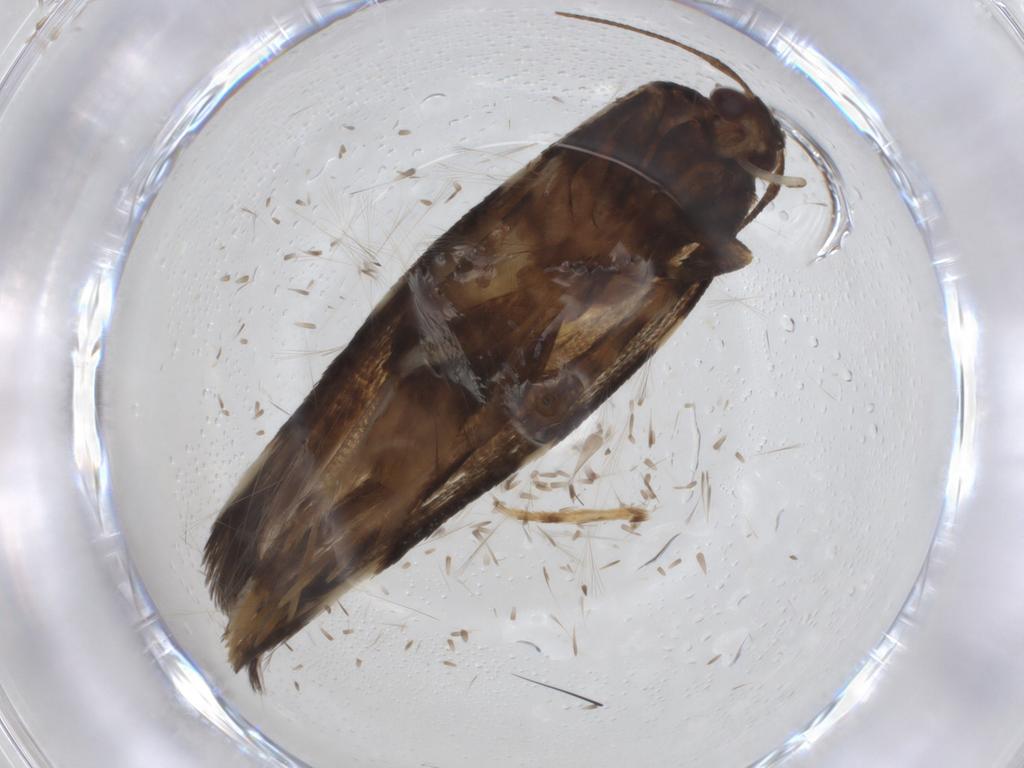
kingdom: Animalia
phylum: Arthropoda
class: Insecta
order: Lepidoptera
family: Cosmopterigidae
